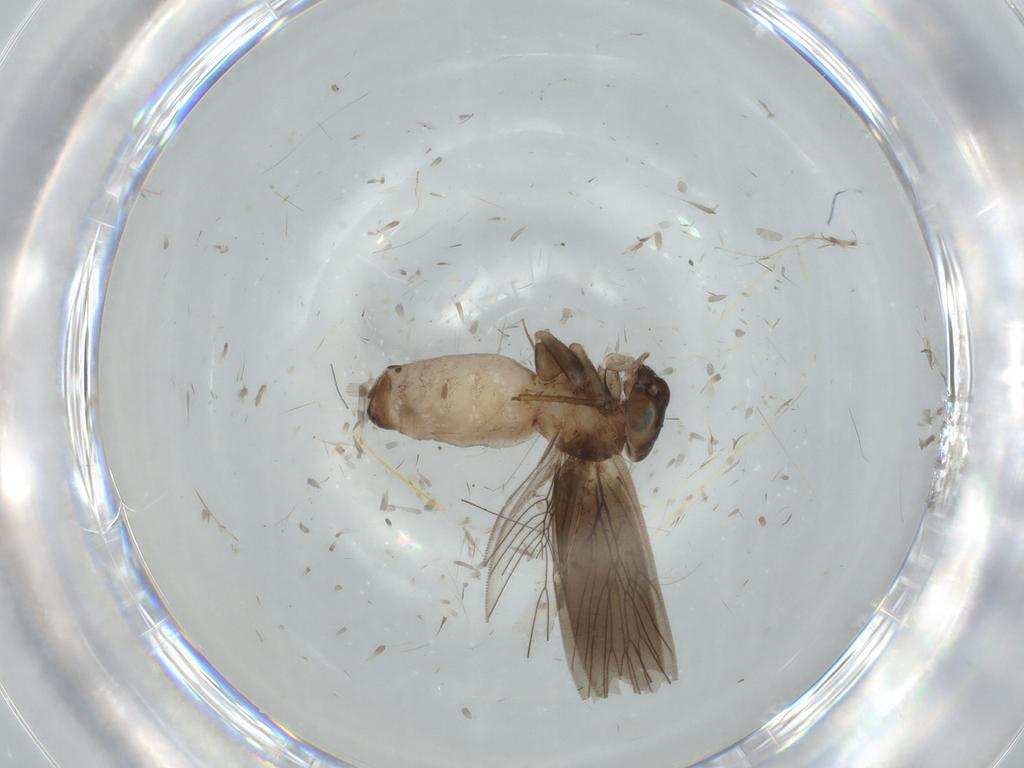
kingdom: Animalia
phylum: Arthropoda
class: Insecta
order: Psocodea
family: Lepidopsocidae
